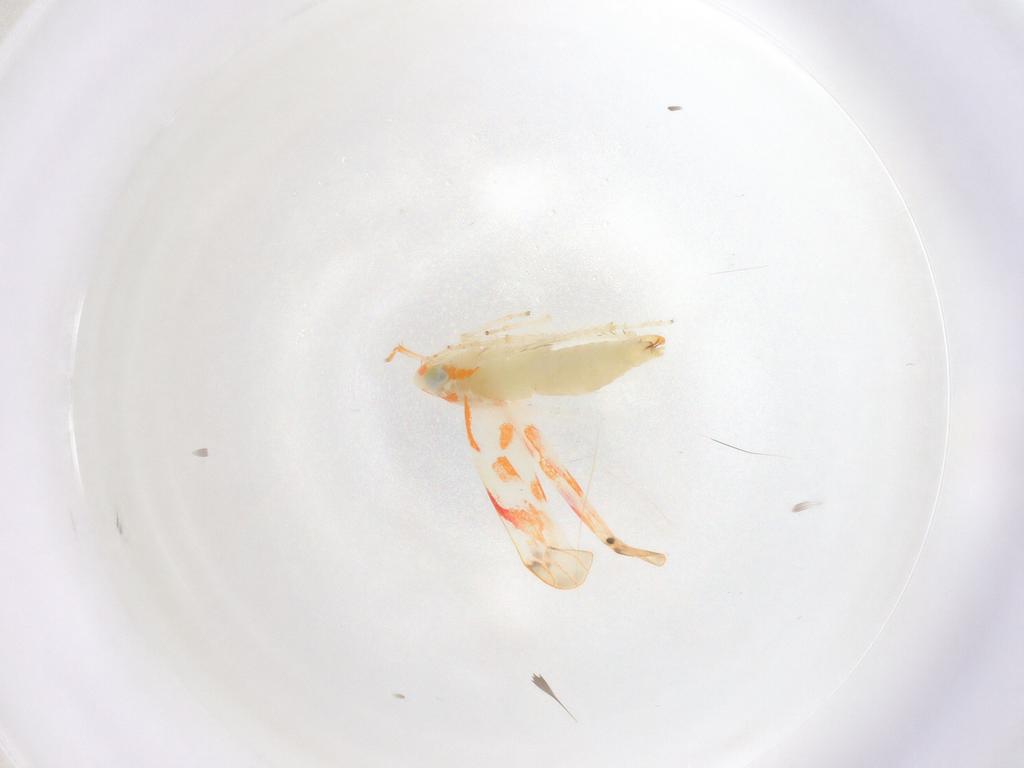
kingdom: Animalia
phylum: Arthropoda
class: Insecta
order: Hemiptera
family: Cicadellidae
